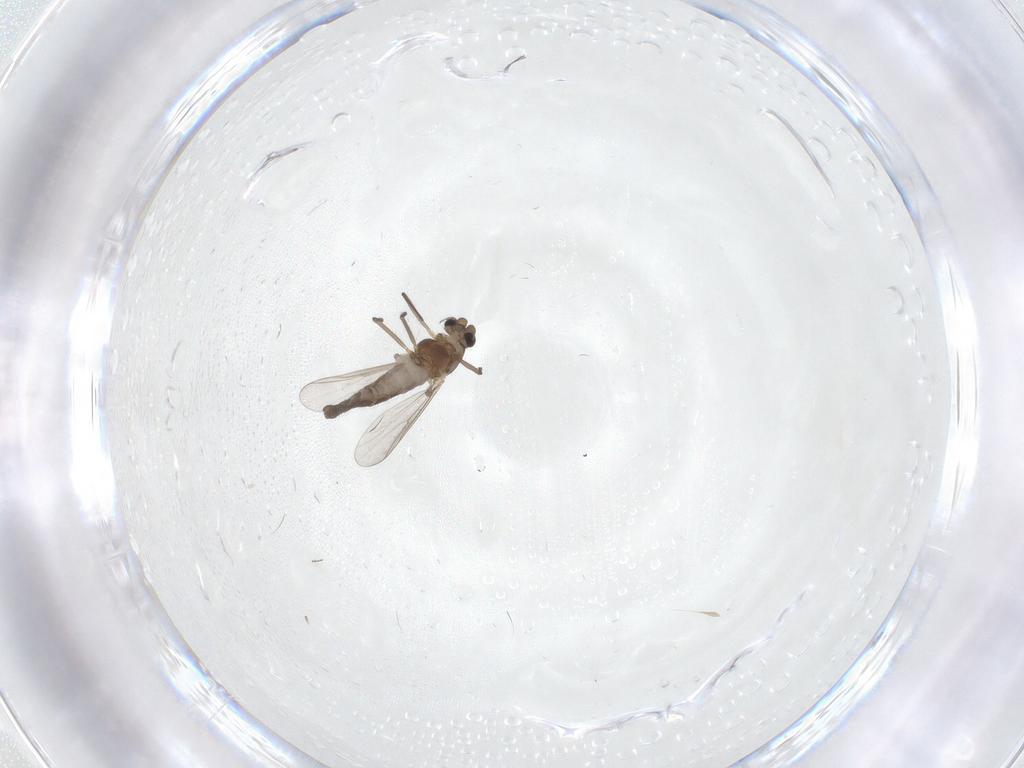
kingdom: Animalia
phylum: Arthropoda
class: Insecta
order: Diptera
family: Chironomidae
